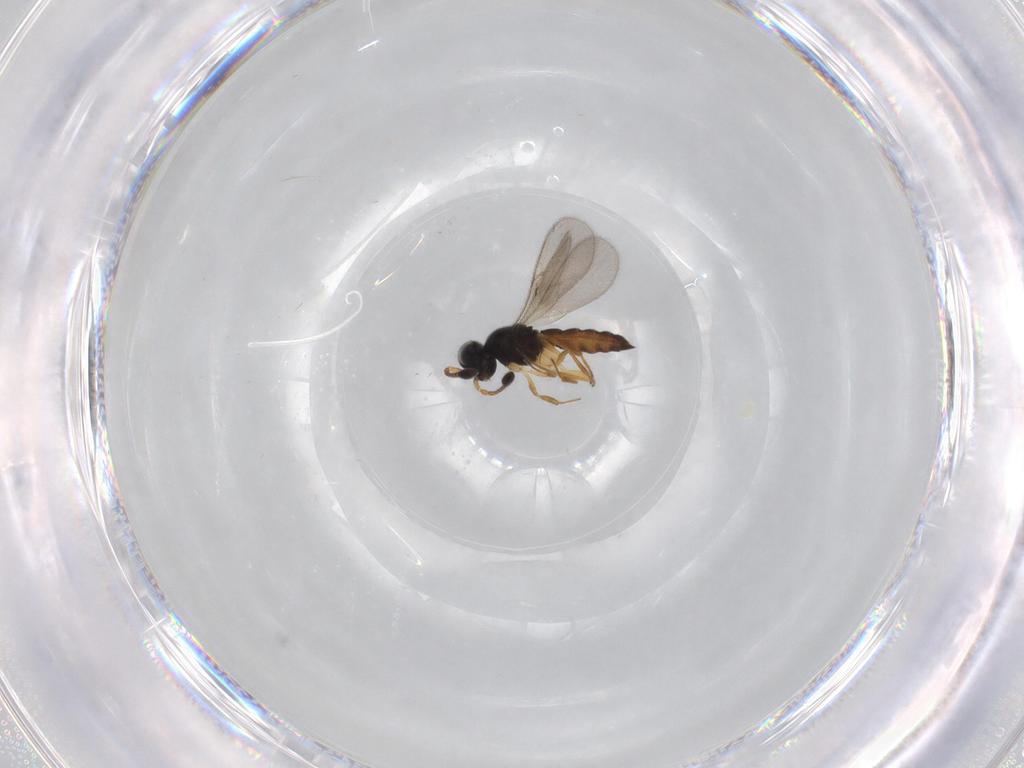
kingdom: Animalia
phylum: Arthropoda
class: Insecta
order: Hymenoptera
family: Scelionidae
